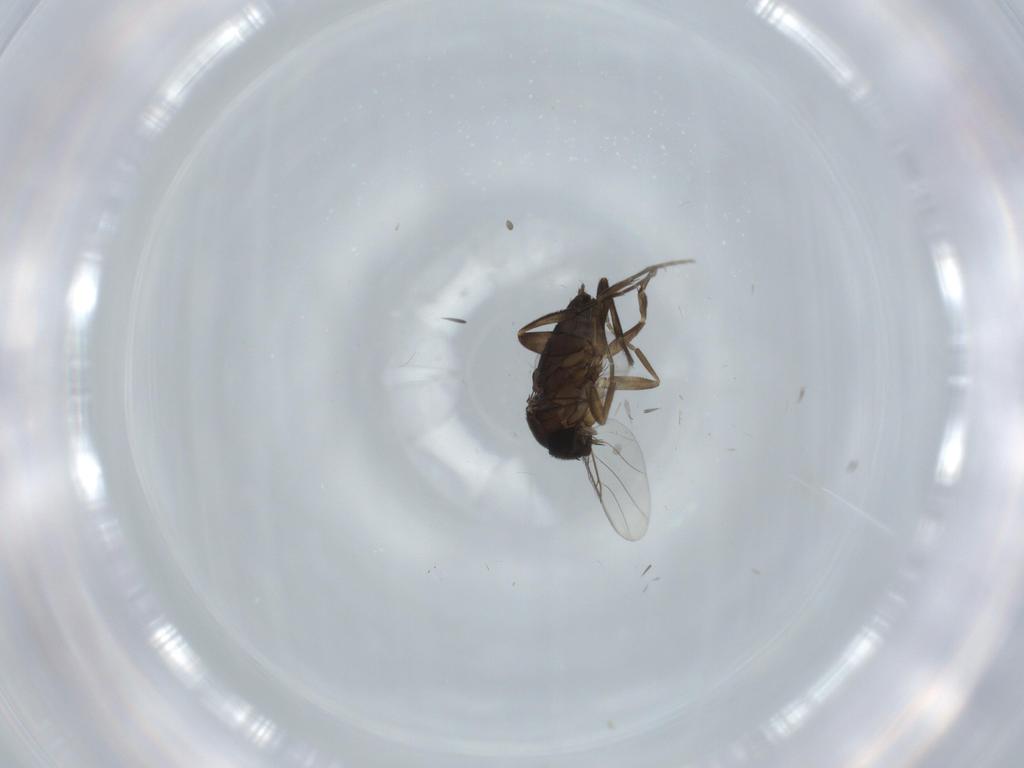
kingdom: Animalia
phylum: Arthropoda
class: Insecta
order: Diptera
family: Phoridae
